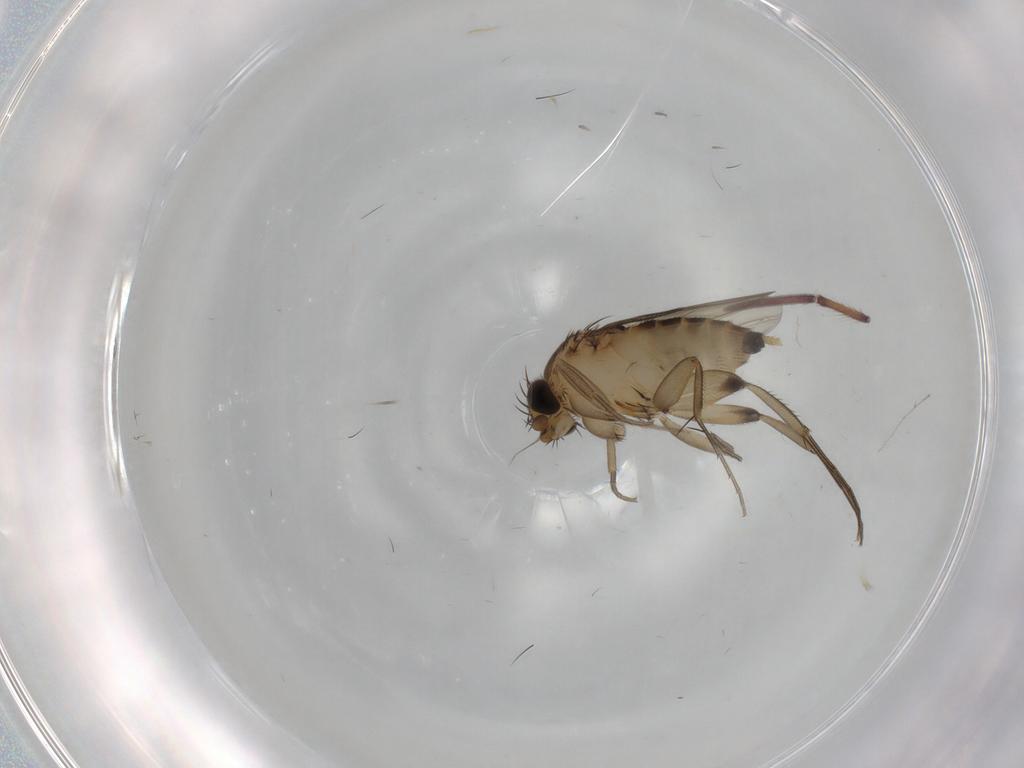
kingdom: Animalia
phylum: Arthropoda
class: Insecta
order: Diptera
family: Chironomidae
